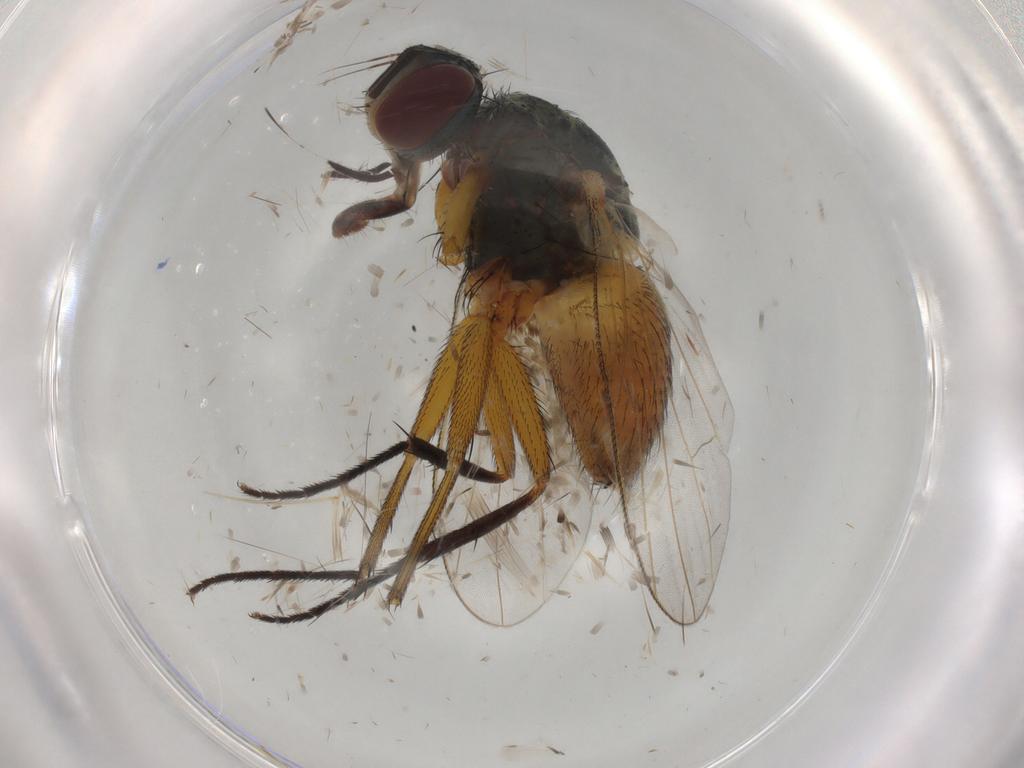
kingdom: Animalia
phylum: Arthropoda
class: Insecta
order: Diptera
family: Chironomidae
